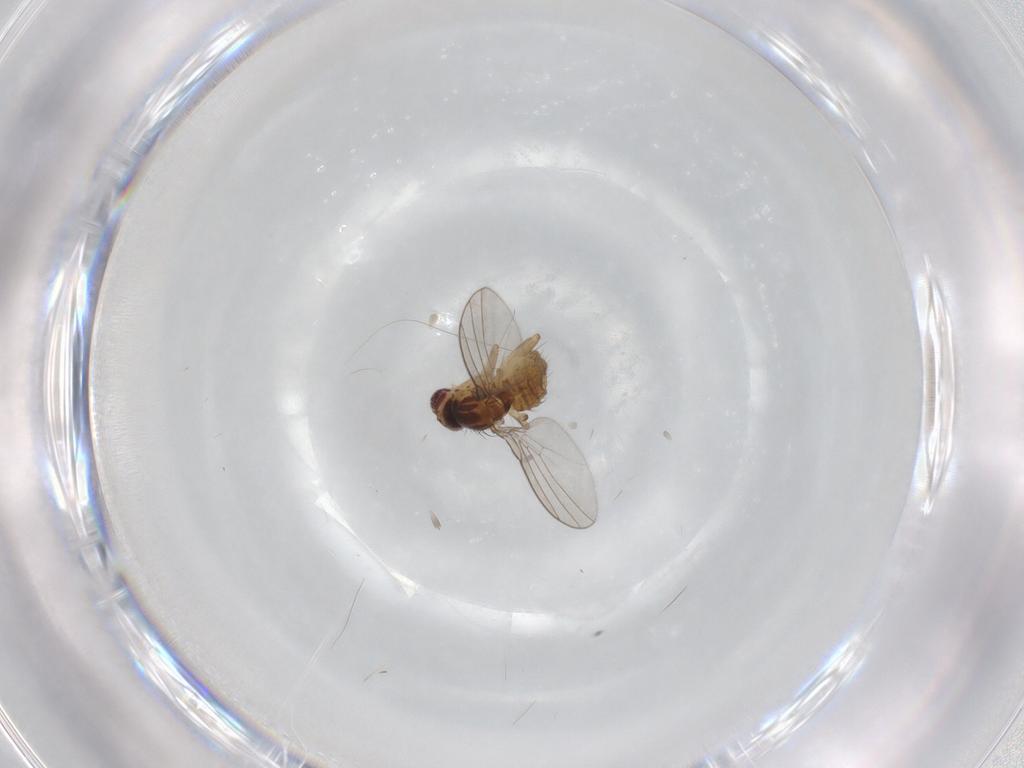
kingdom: Animalia
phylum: Arthropoda
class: Insecta
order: Diptera
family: Agromyzidae
